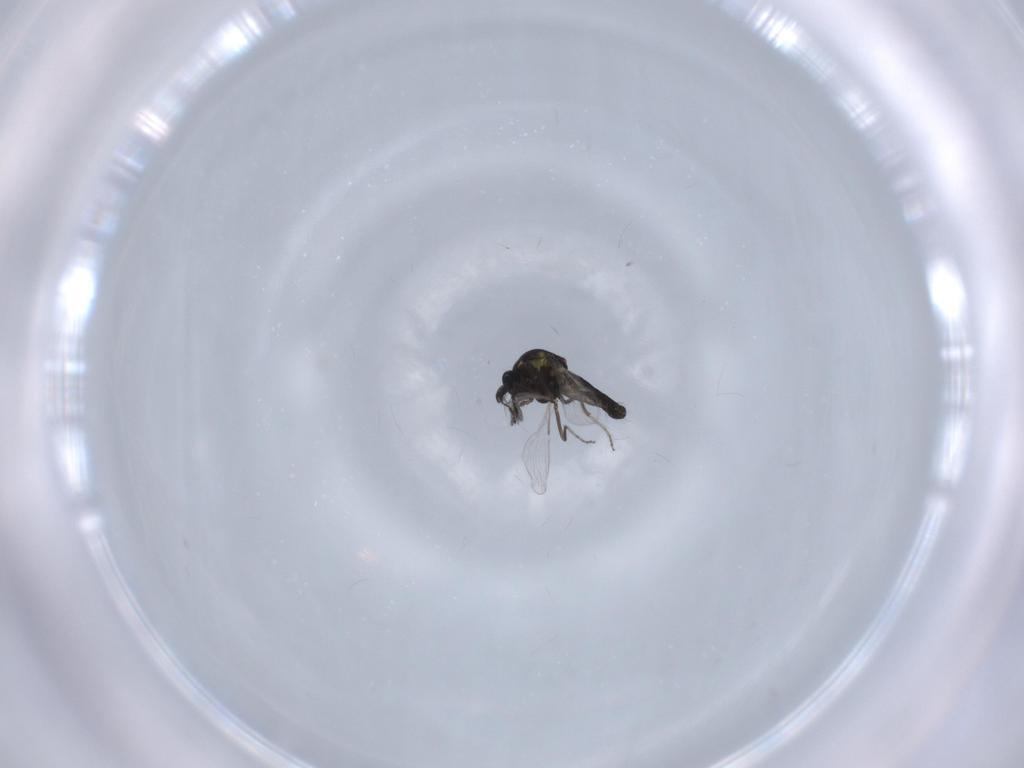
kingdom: Animalia
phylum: Arthropoda
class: Insecta
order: Diptera
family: Ceratopogonidae
